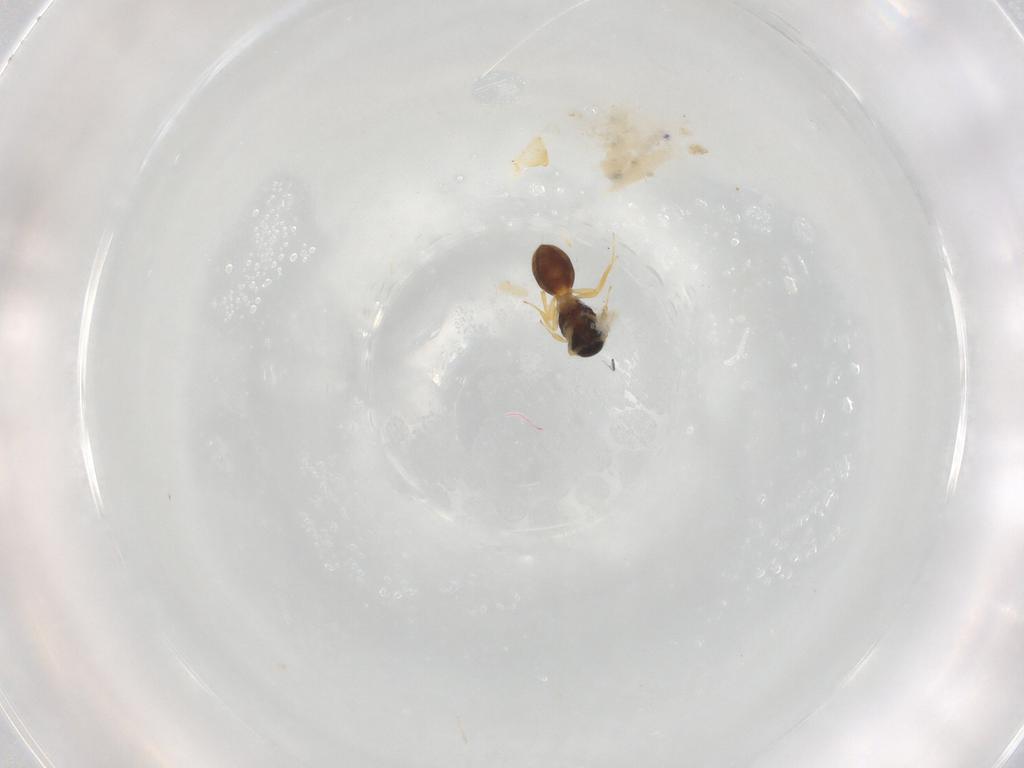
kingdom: Animalia
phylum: Arthropoda
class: Insecta
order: Hymenoptera
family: Scelionidae
